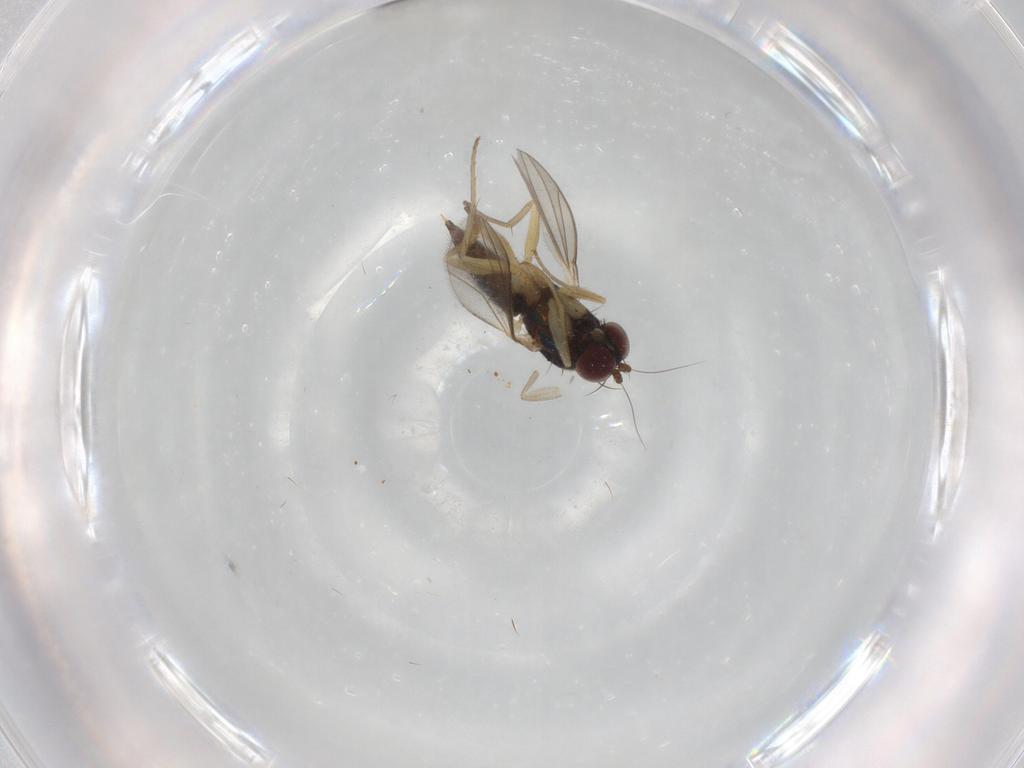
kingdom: Animalia
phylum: Arthropoda
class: Insecta
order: Diptera
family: Dolichopodidae
